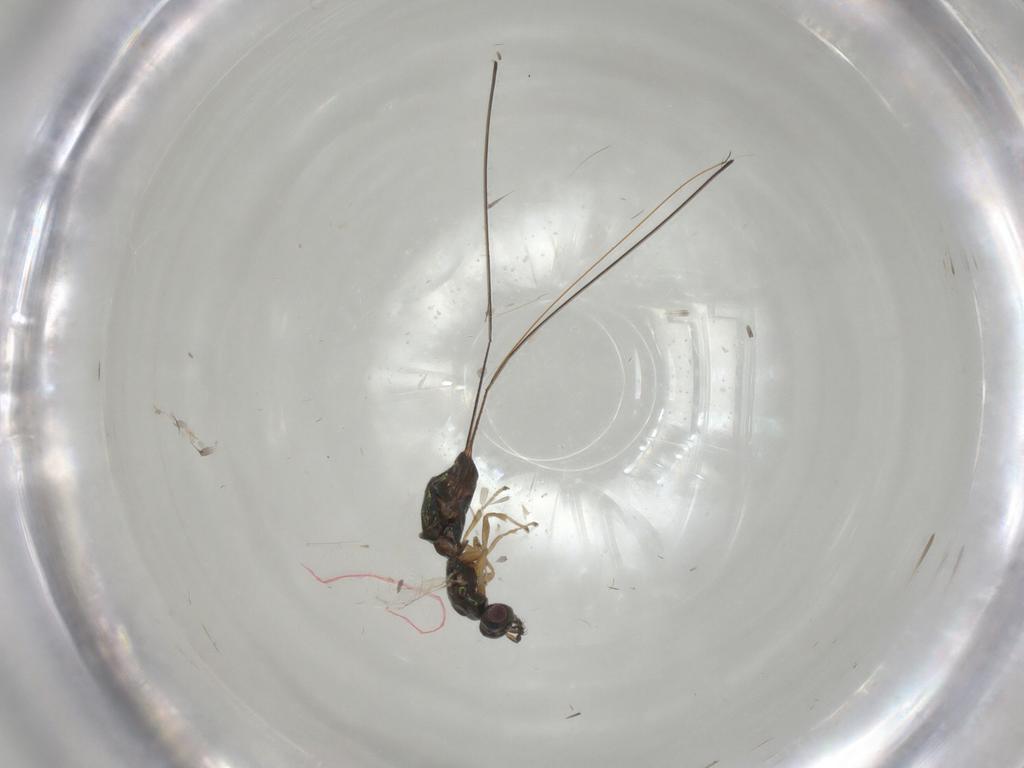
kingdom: Animalia
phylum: Arthropoda
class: Insecta
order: Hymenoptera
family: Pteromalidae
